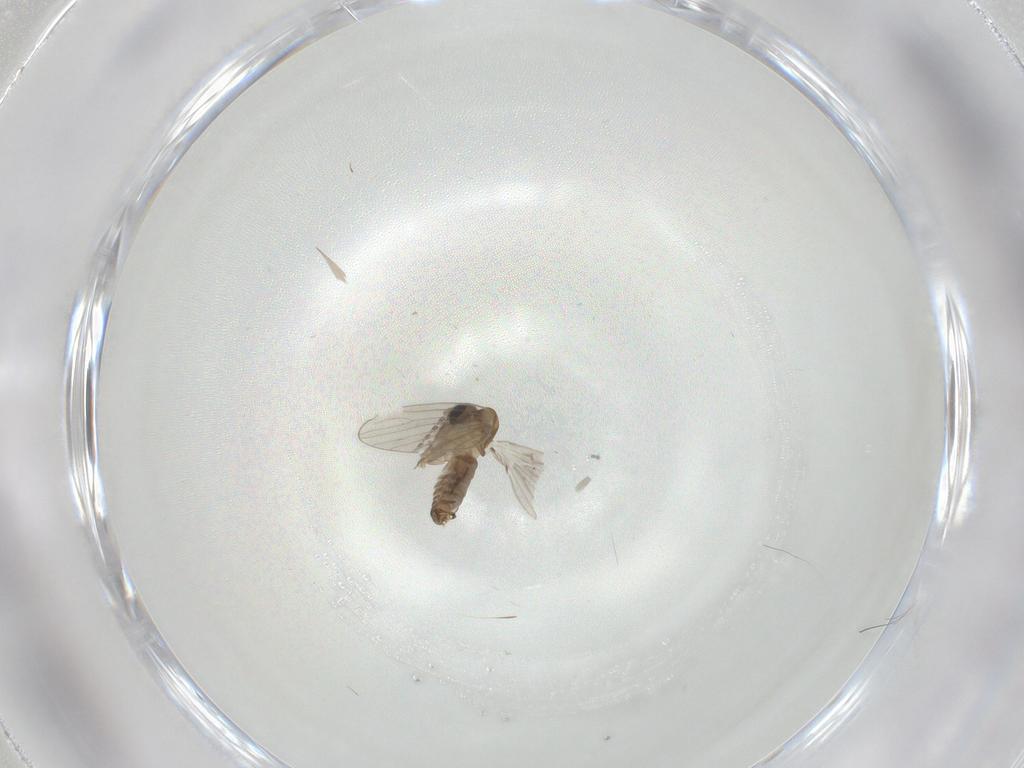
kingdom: Animalia
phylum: Arthropoda
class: Insecta
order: Diptera
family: Psychodidae
